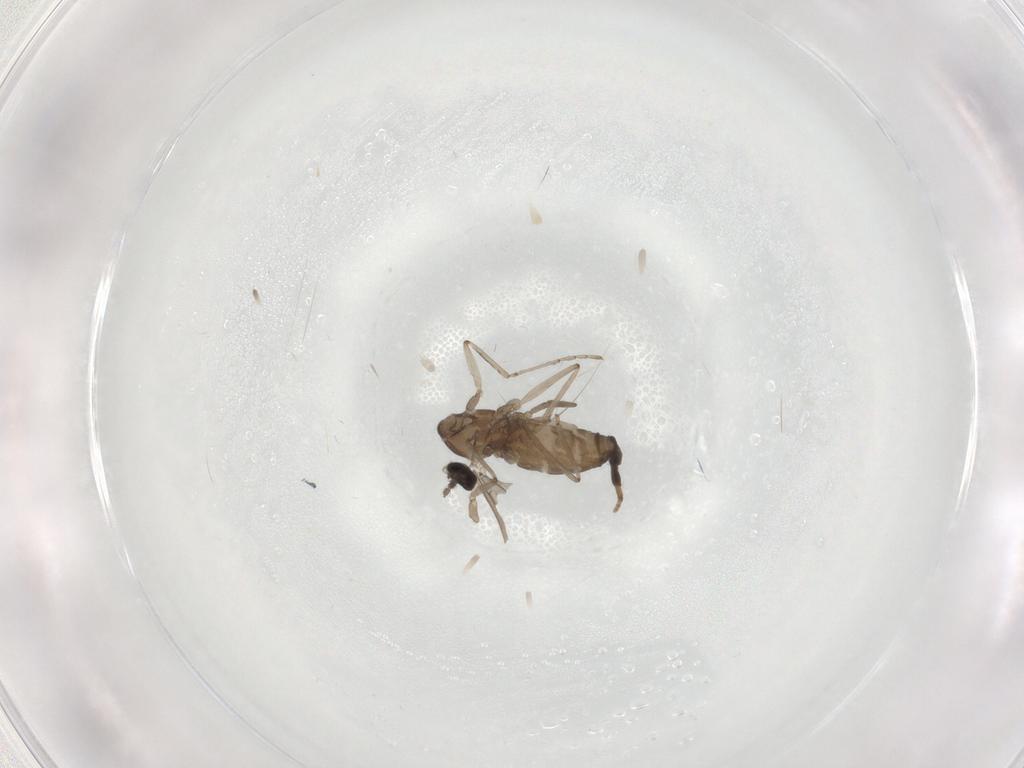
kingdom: Animalia
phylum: Arthropoda
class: Insecta
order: Diptera
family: Cecidomyiidae
